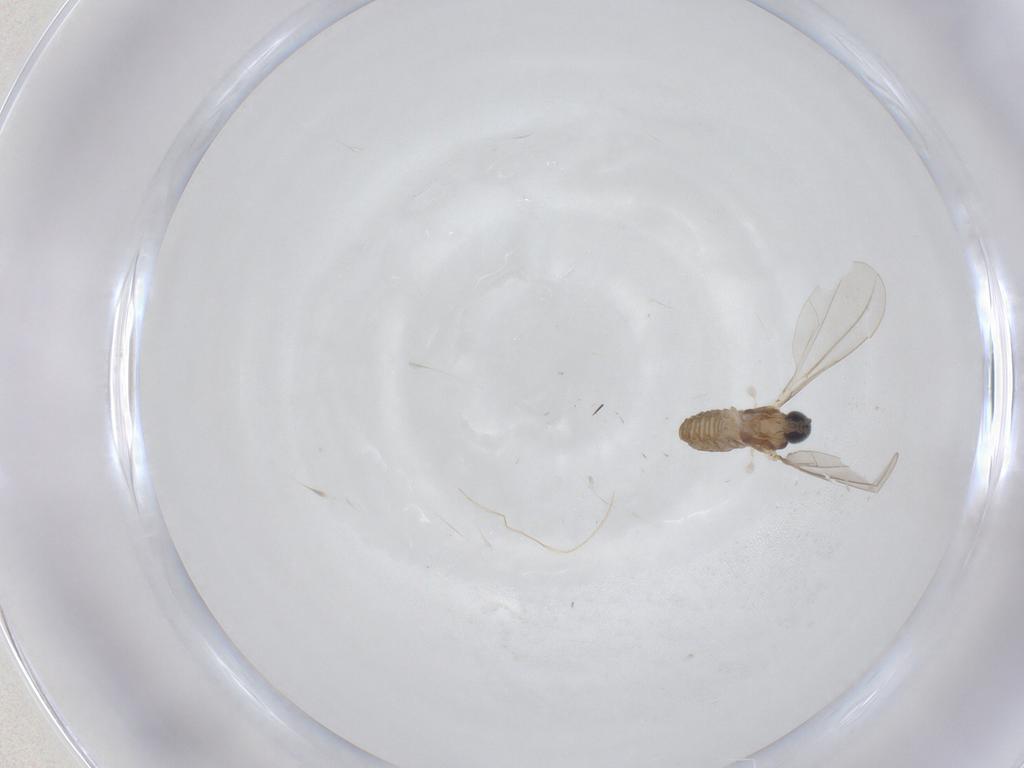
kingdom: Animalia
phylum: Arthropoda
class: Insecta
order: Diptera
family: Cecidomyiidae
